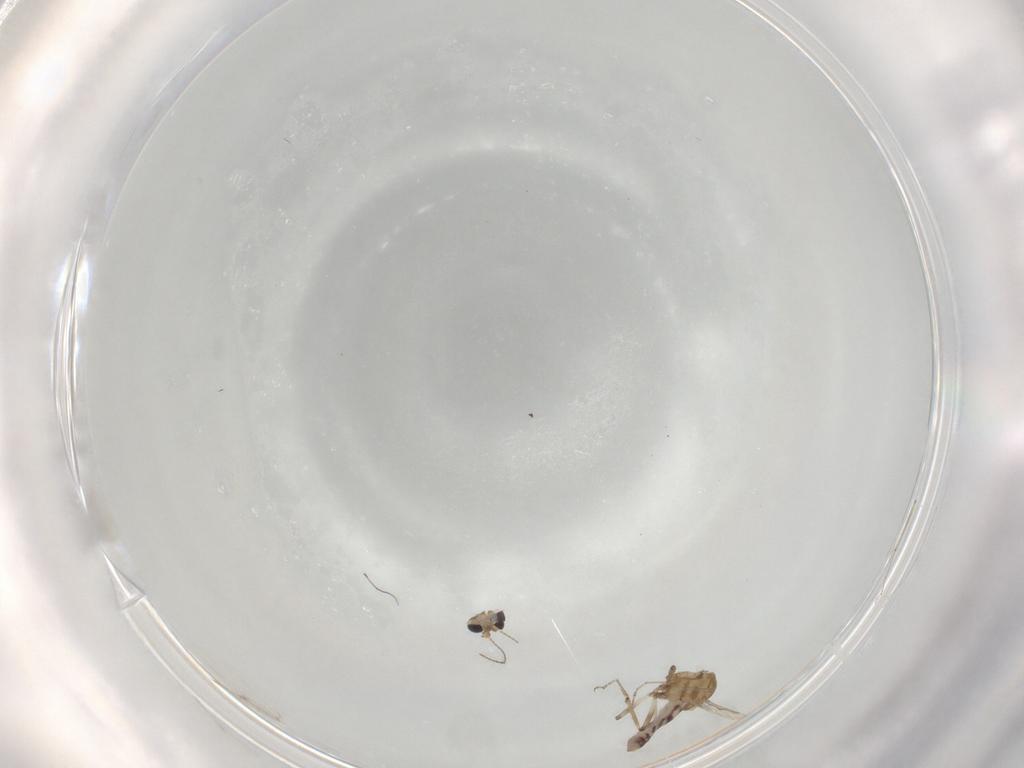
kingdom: Animalia
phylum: Arthropoda
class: Insecta
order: Diptera
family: Ceratopogonidae
